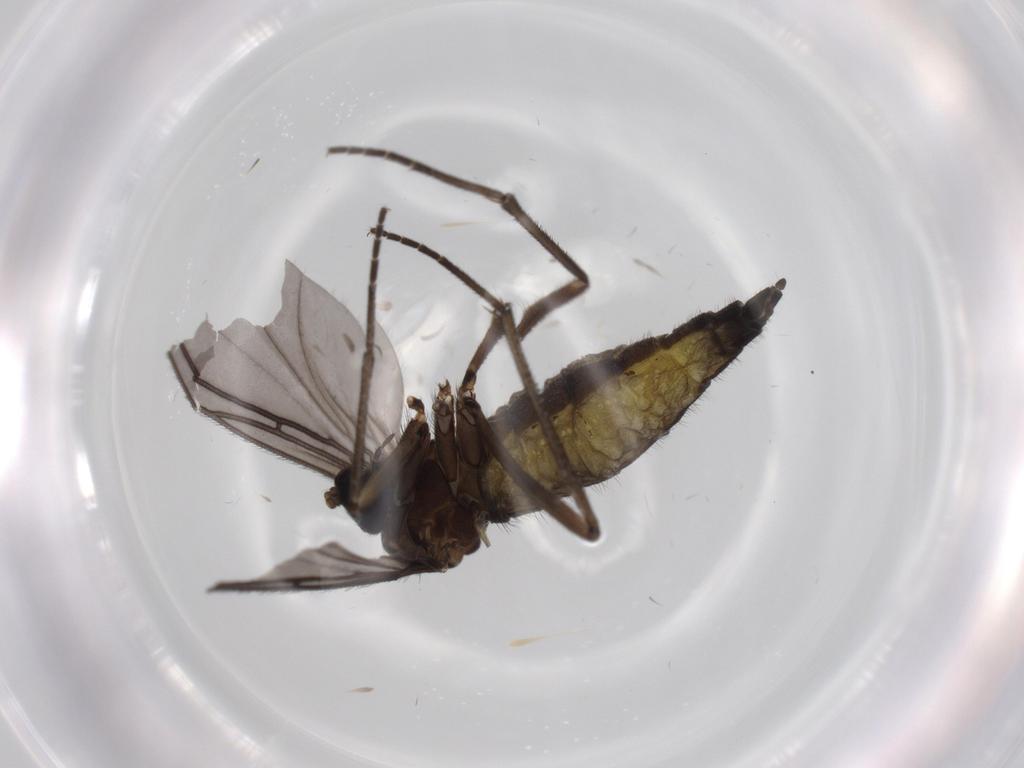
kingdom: Animalia
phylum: Arthropoda
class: Insecta
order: Diptera
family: Sciaridae
